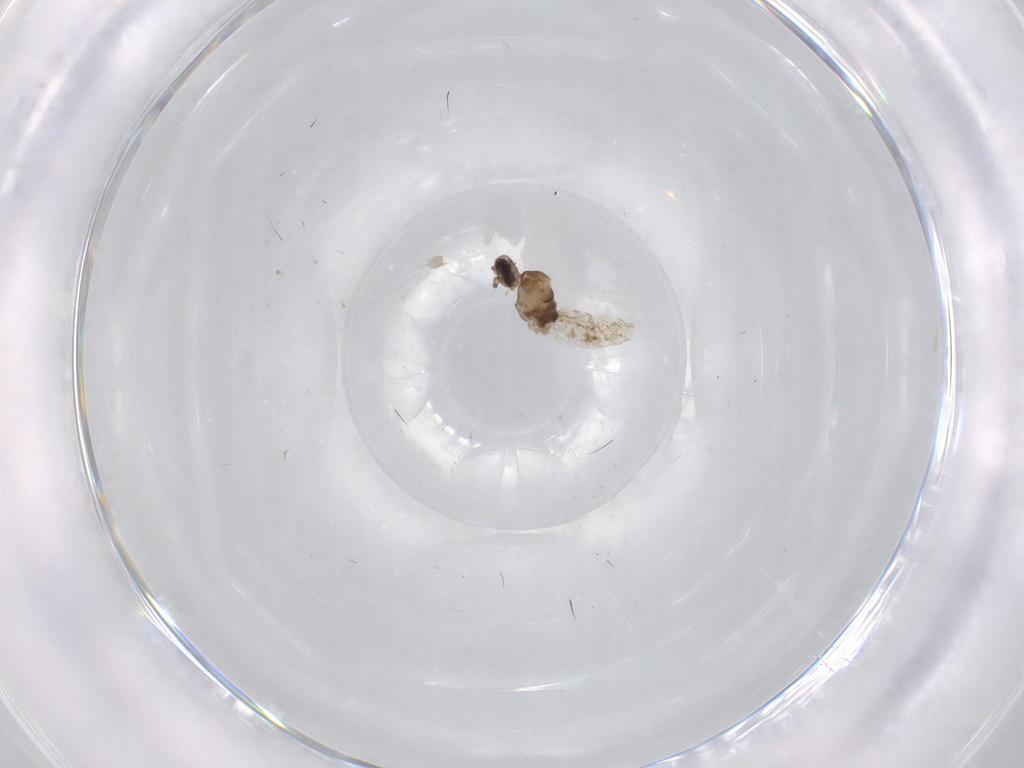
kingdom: Animalia
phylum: Arthropoda
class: Insecta
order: Diptera
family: Cecidomyiidae
